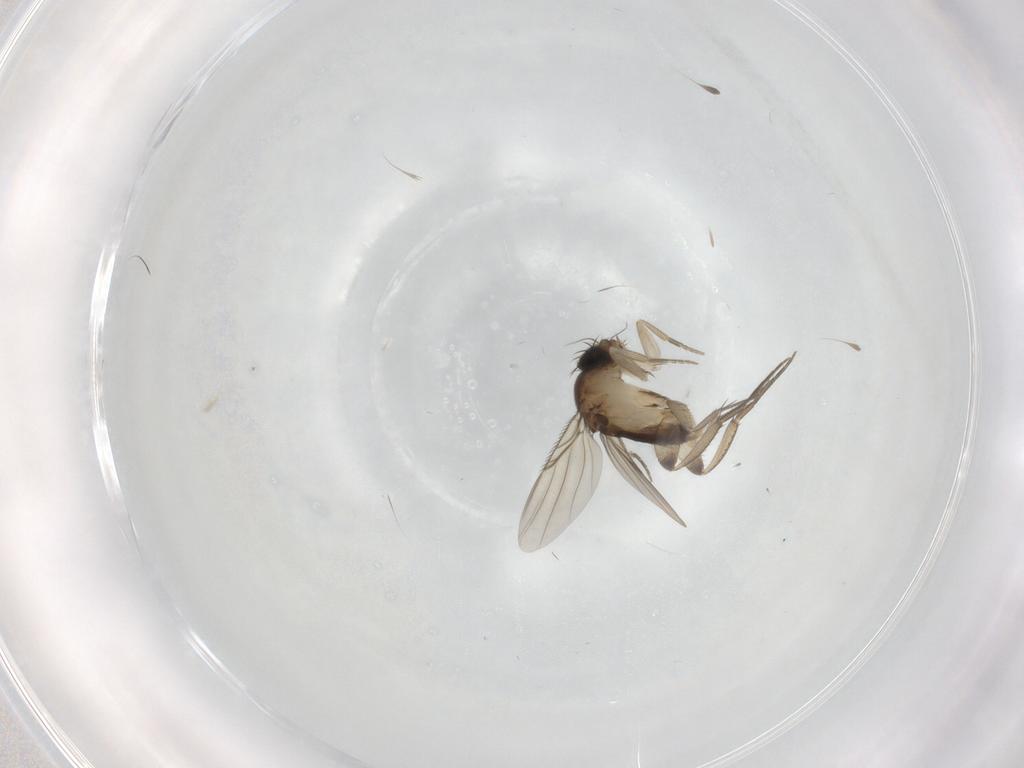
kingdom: Animalia
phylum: Arthropoda
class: Insecta
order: Diptera
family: Phoridae
